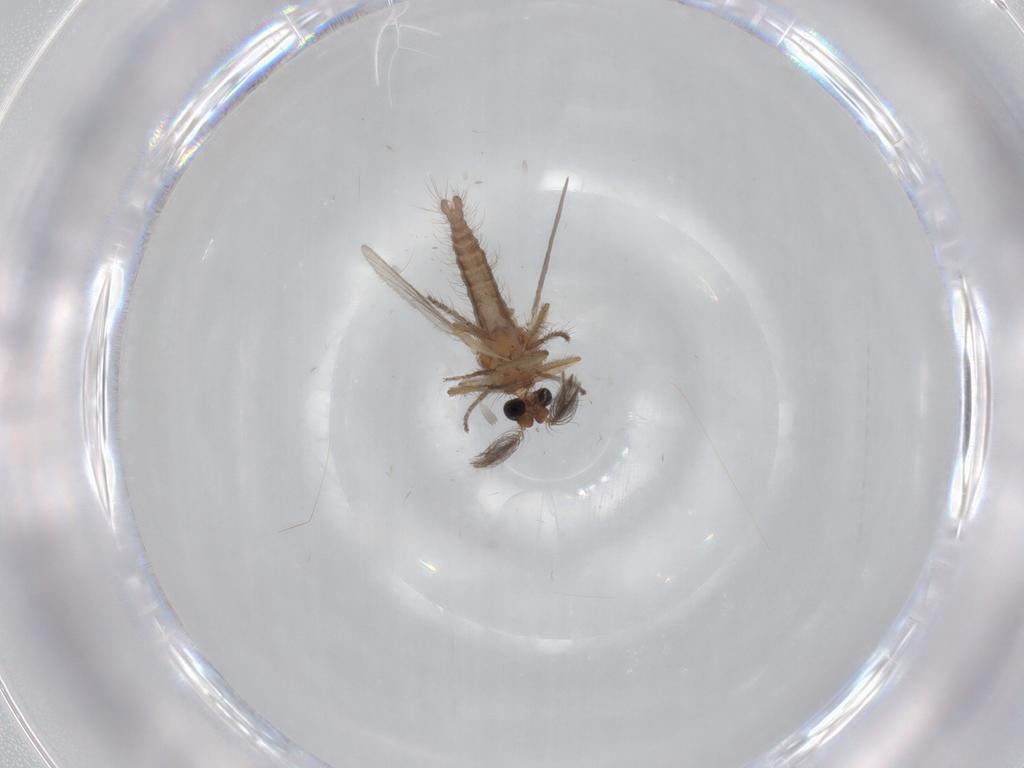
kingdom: Animalia
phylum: Arthropoda
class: Insecta
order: Diptera
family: Ceratopogonidae
